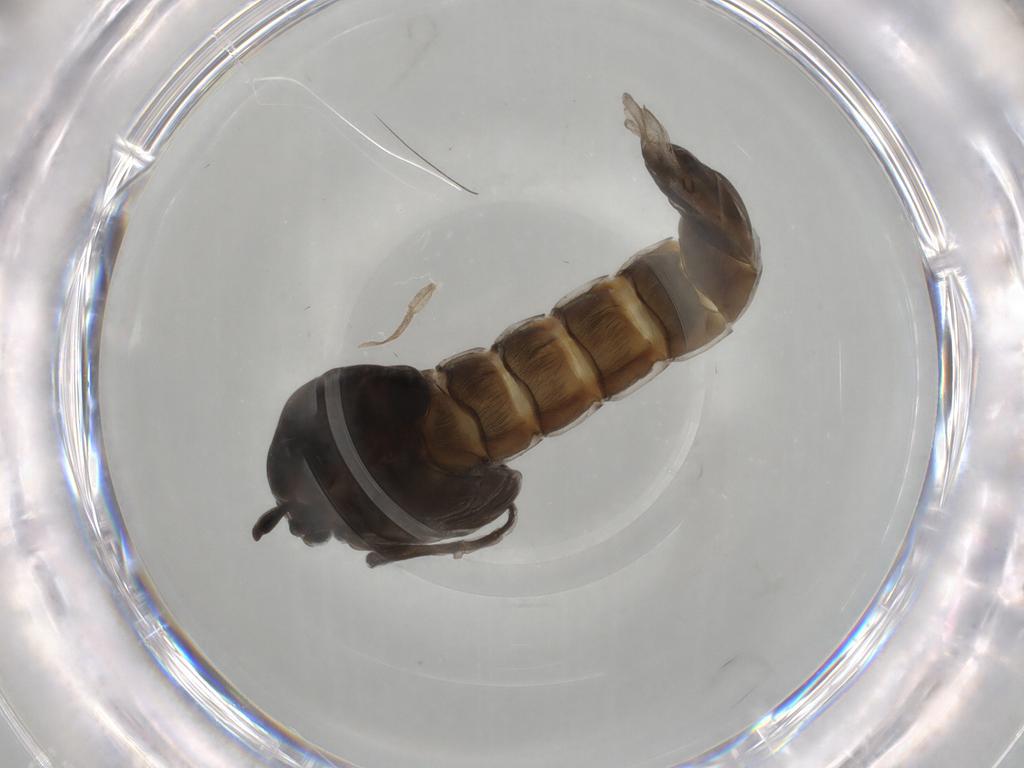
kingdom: Animalia
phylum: Arthropoda
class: Insecta
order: Diptera
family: Chironomidae
